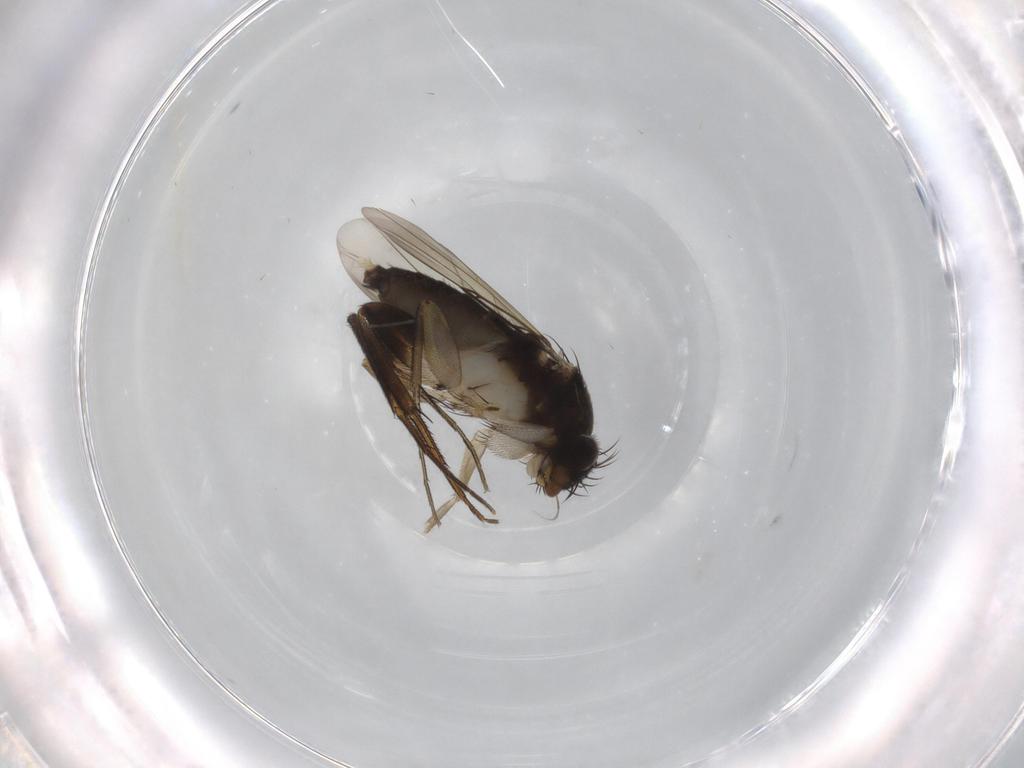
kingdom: Animalia
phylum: Arthropoda
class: Insecta
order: Diptera
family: Phoridae
